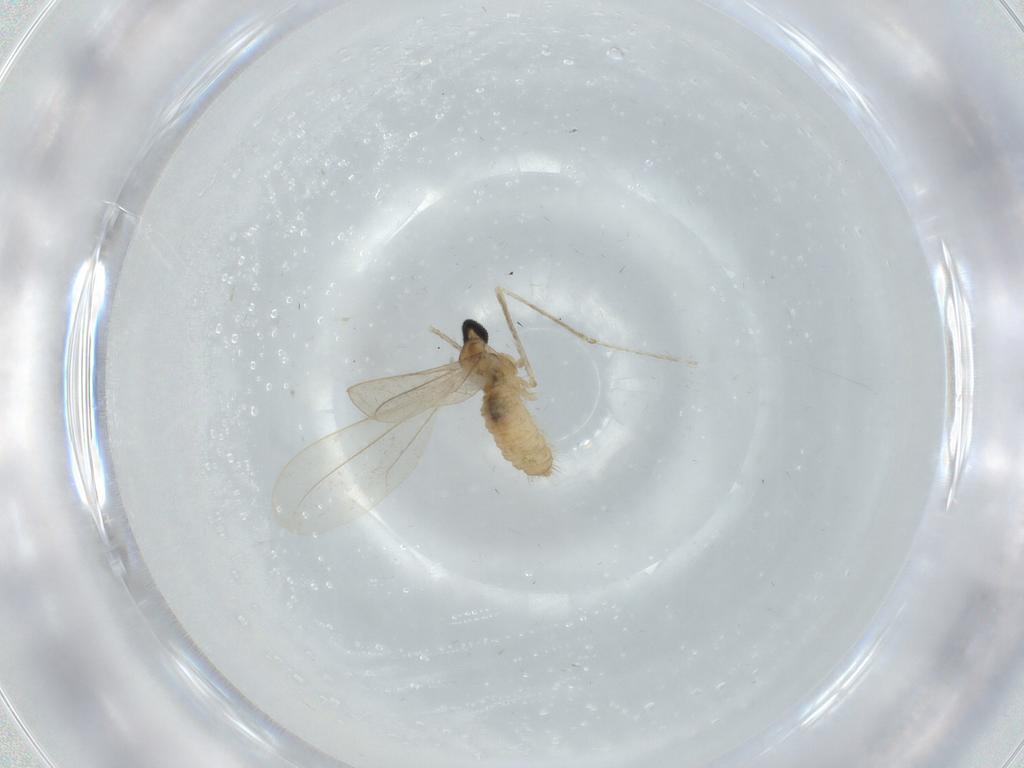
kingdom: Animalia
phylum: Arthropoda
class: Insecta
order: Diptera
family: Cecidomyiidae
